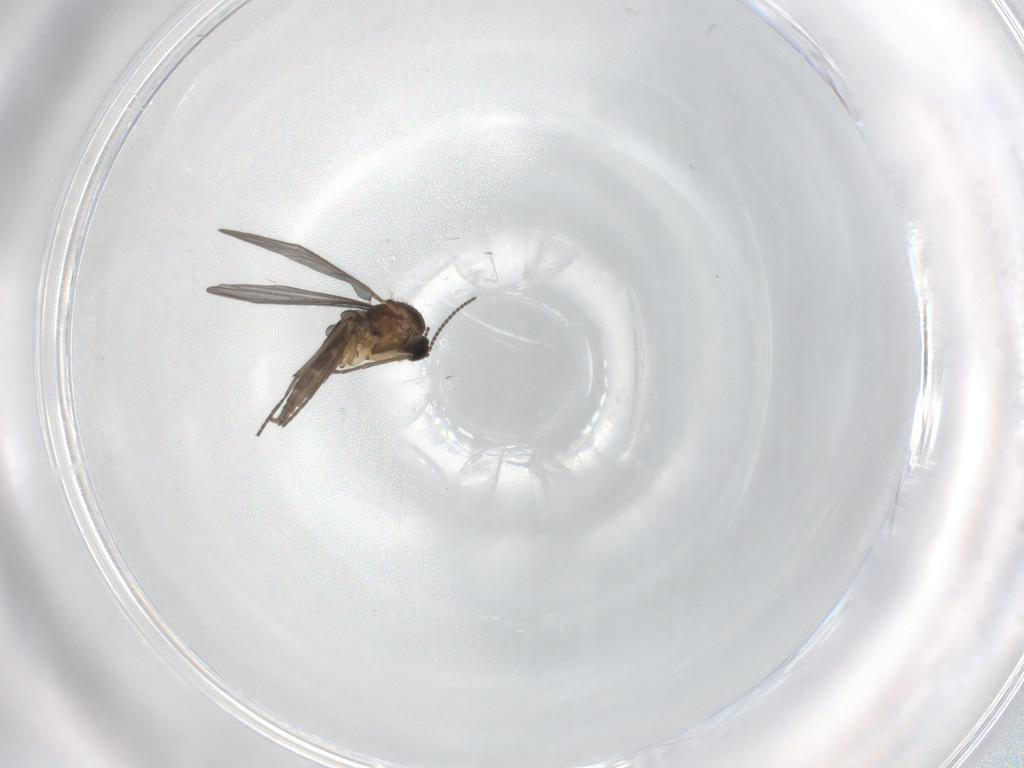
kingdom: Animalia
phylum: Arthropoda
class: Insecta
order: Diptera
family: Sciaridae
